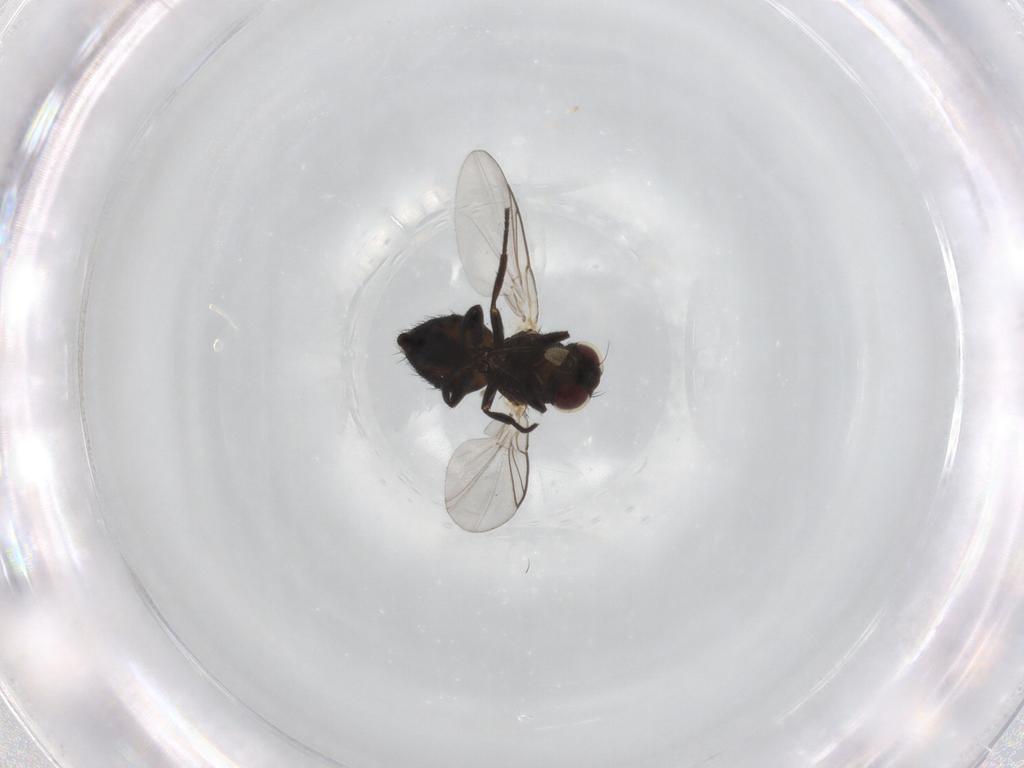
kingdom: Animalia
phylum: Arthropoda
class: Insecta
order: Diptera
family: Agromyzidae
